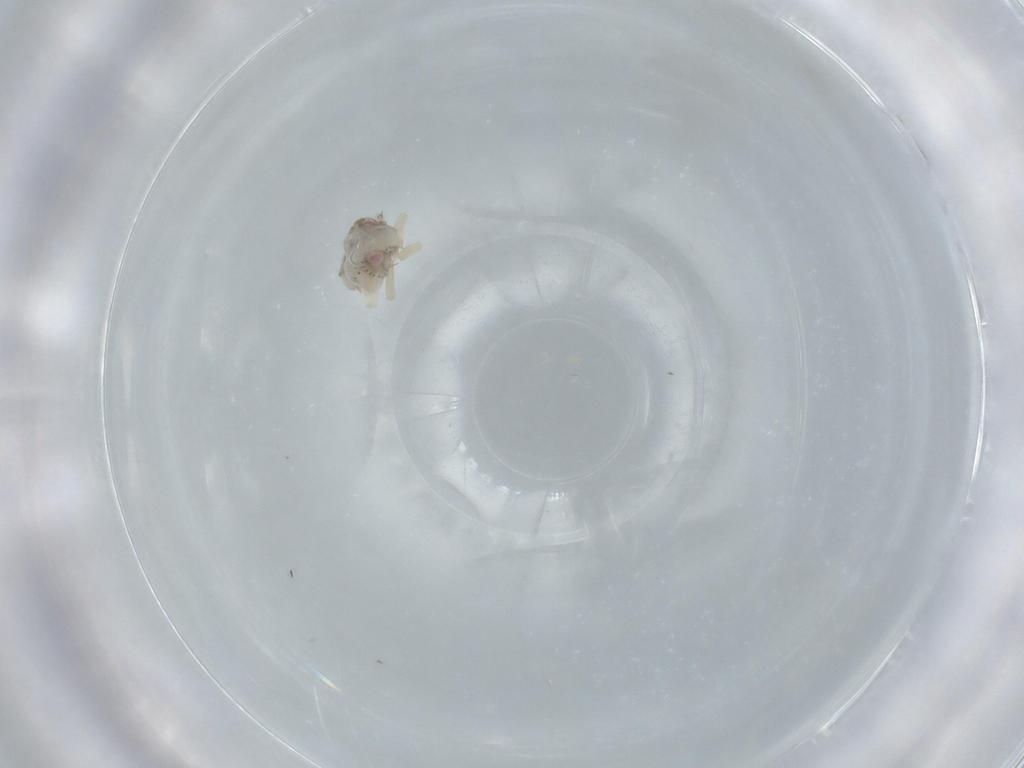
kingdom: Animalia
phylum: Arthropoda
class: Insecta
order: Hemiptera
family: Acanaloniidae
